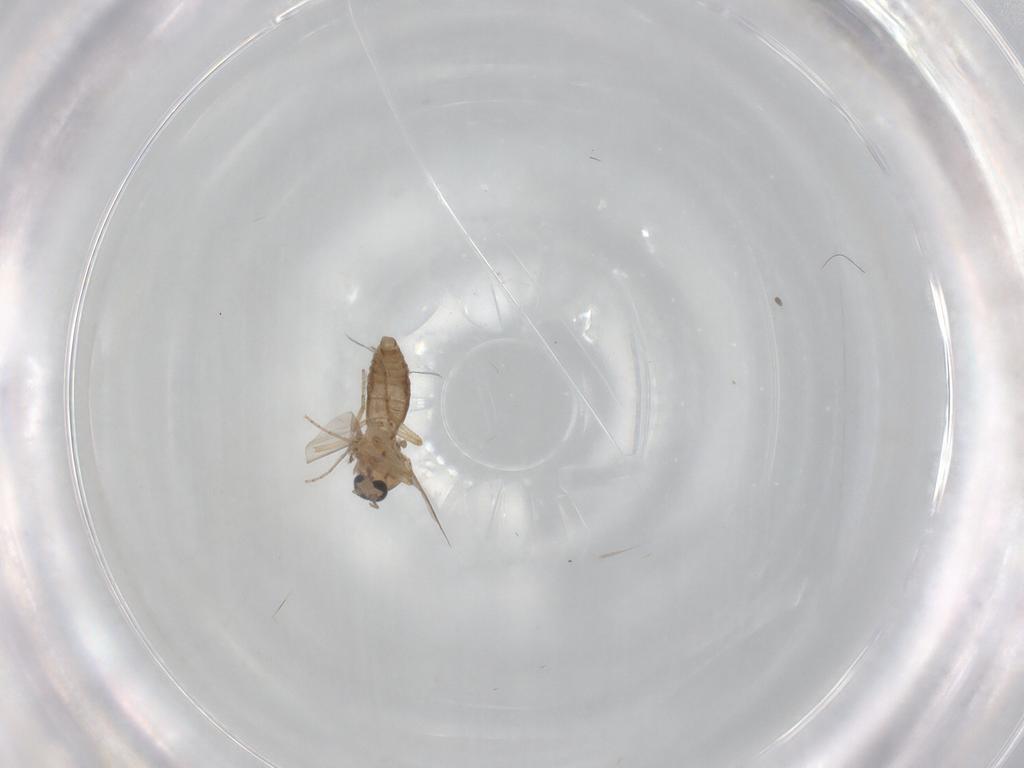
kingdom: Animalia
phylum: Arthropoda
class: Insecta
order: Diptera
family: Ceratopogonidae
